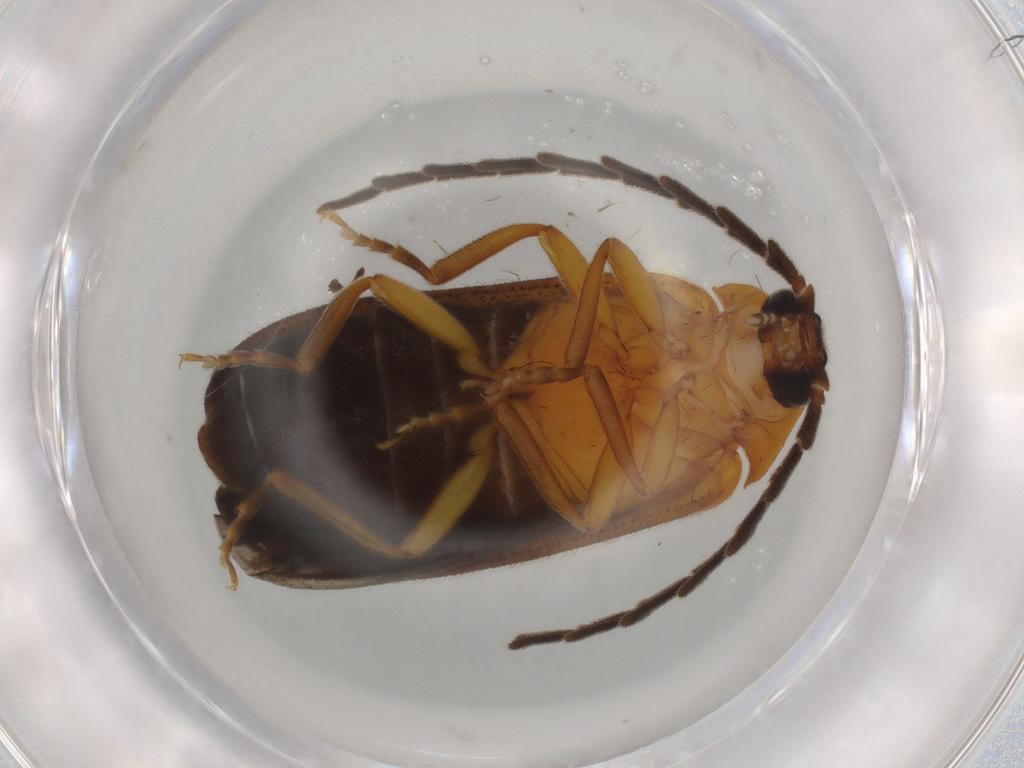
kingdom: Animalia
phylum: Arthropoda
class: Insecta
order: Coleoptera
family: Lampyridae
